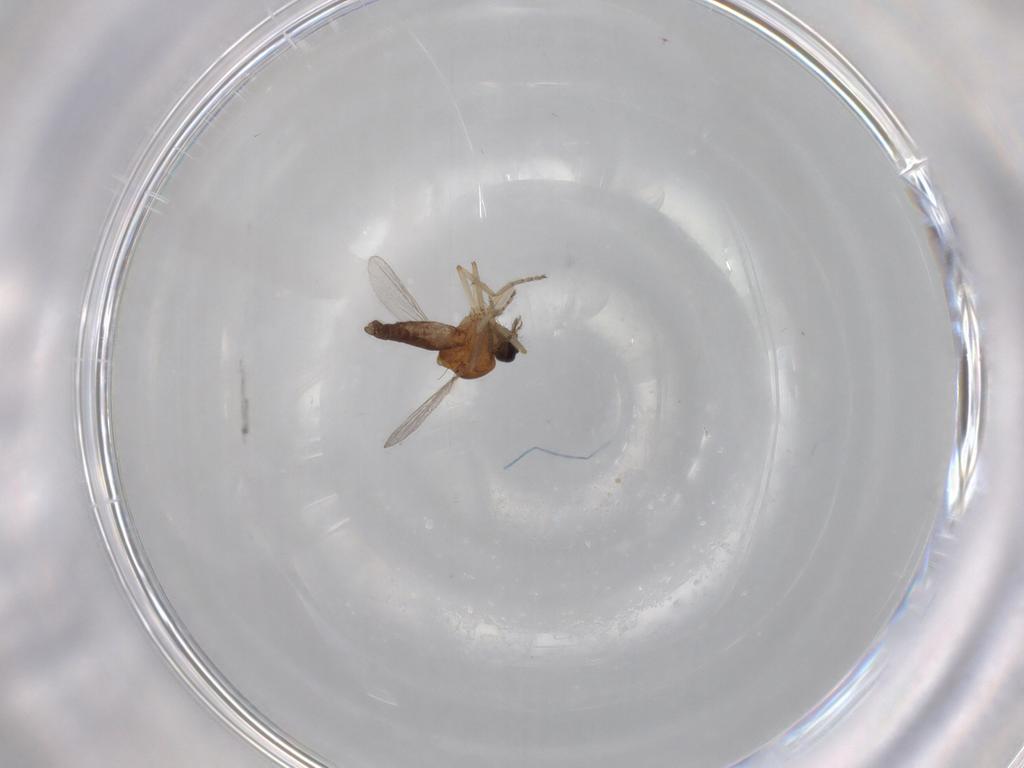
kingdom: Animalia
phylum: Arthropoda
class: Insecta
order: Diptera
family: Ceratopogonidae
